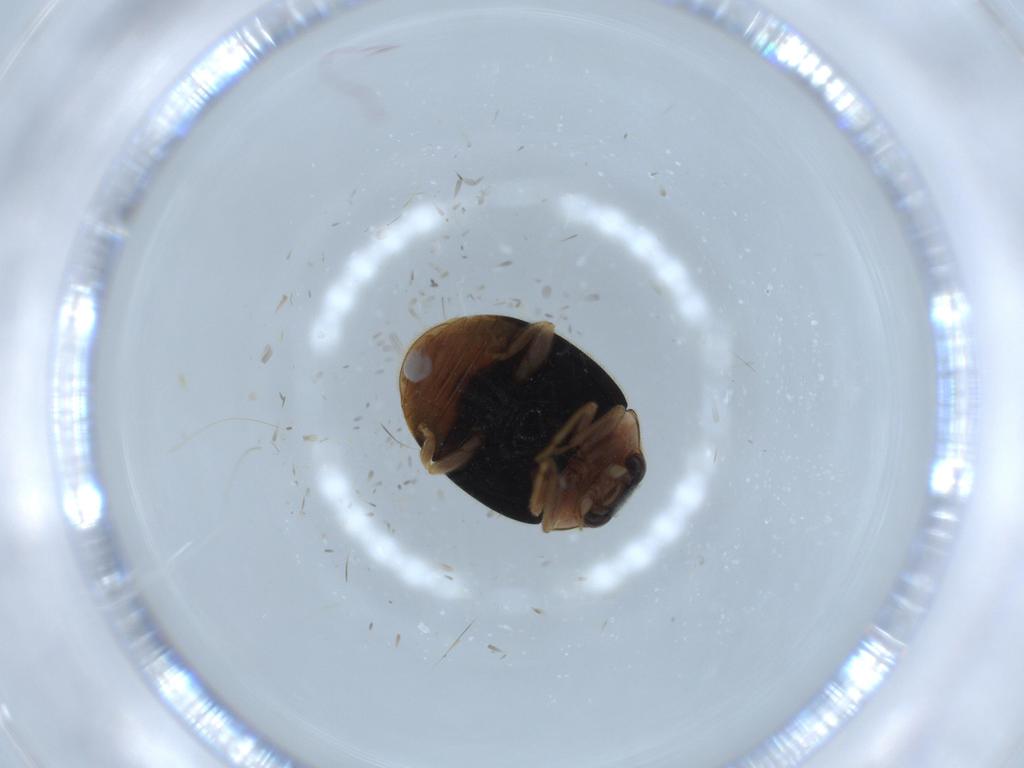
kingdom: Animalia
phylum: Arthropoda
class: Insecta
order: Coleoptera
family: Coccinellidae
